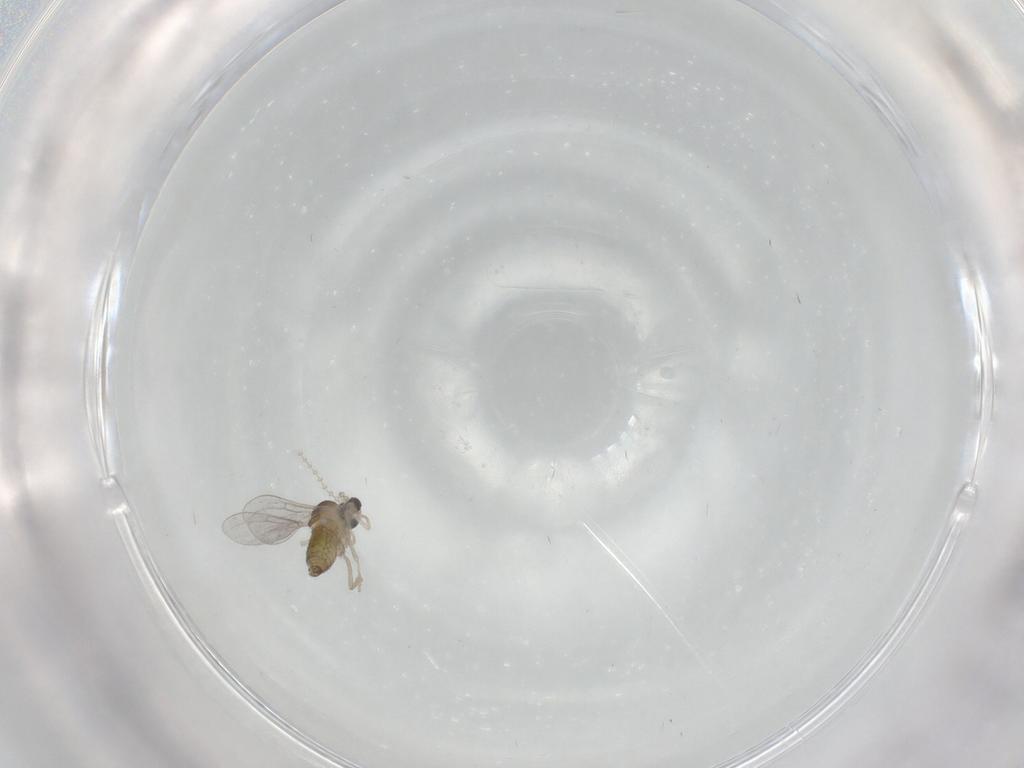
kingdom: Animalia
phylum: Arthropoda
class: Insecta
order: Diptera
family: Cecidomyiidae
